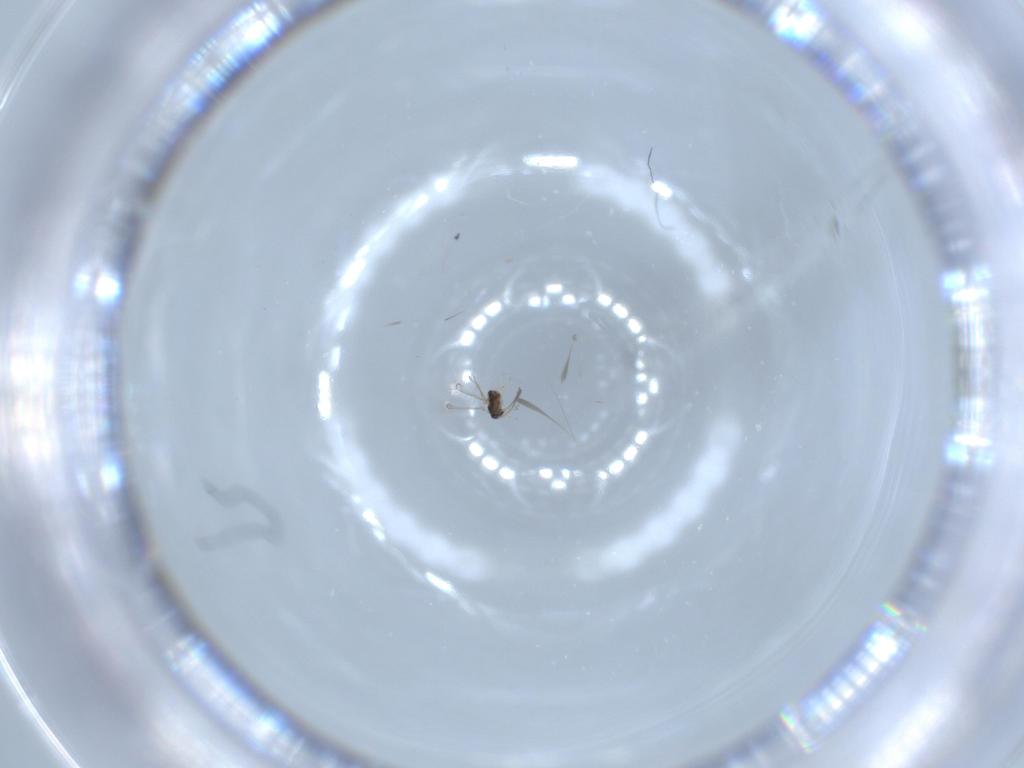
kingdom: Animalia
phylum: Arthropoda
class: Insecta
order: Hymenoptera
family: Mymaridae
